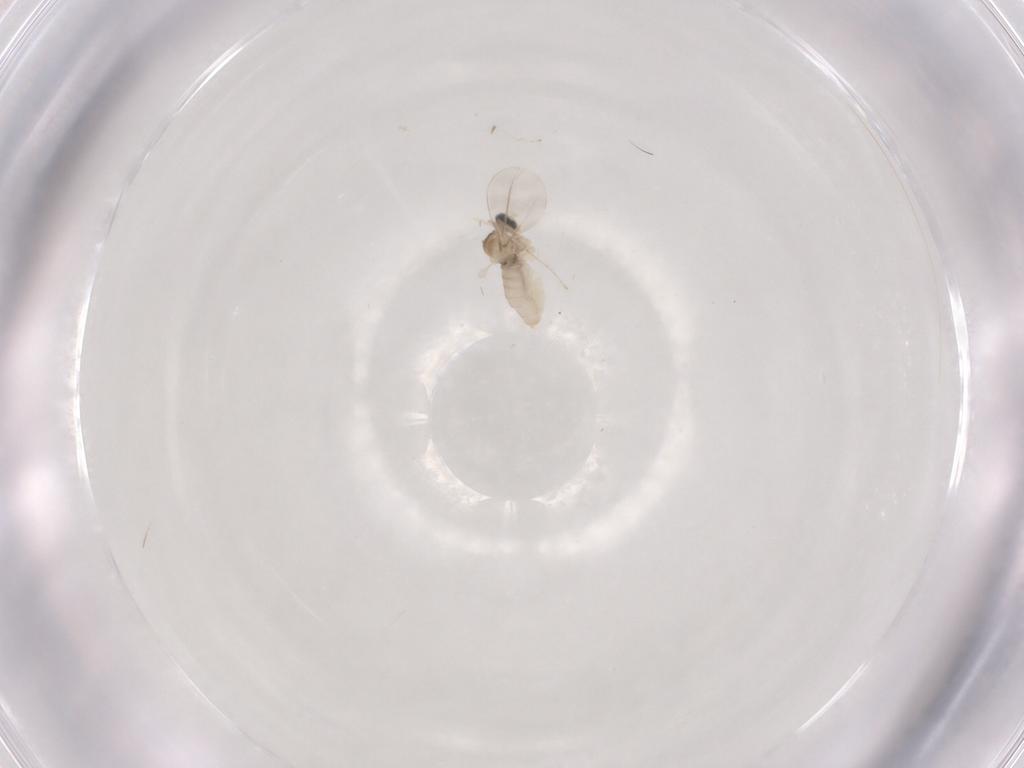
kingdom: Animalia
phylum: Arthropoda
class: Insecta
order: Diptera
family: Cecidomyiidae
